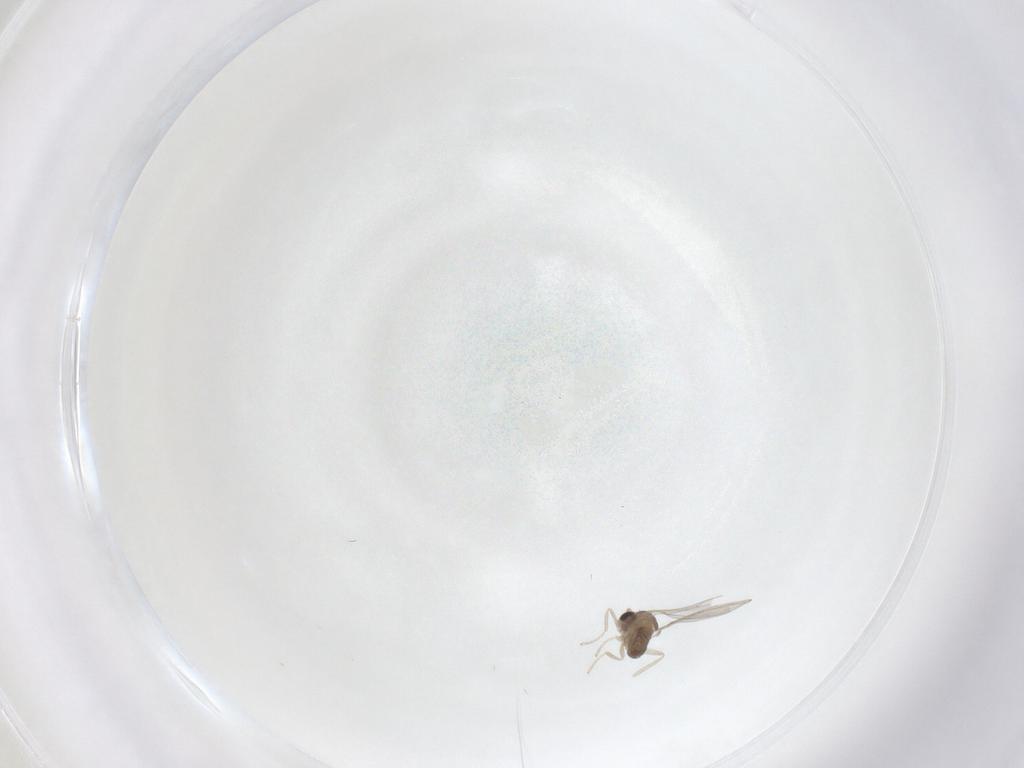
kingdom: Animalia
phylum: Arthropoda
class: Insecta
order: Diptera
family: Cecidomyiidae
